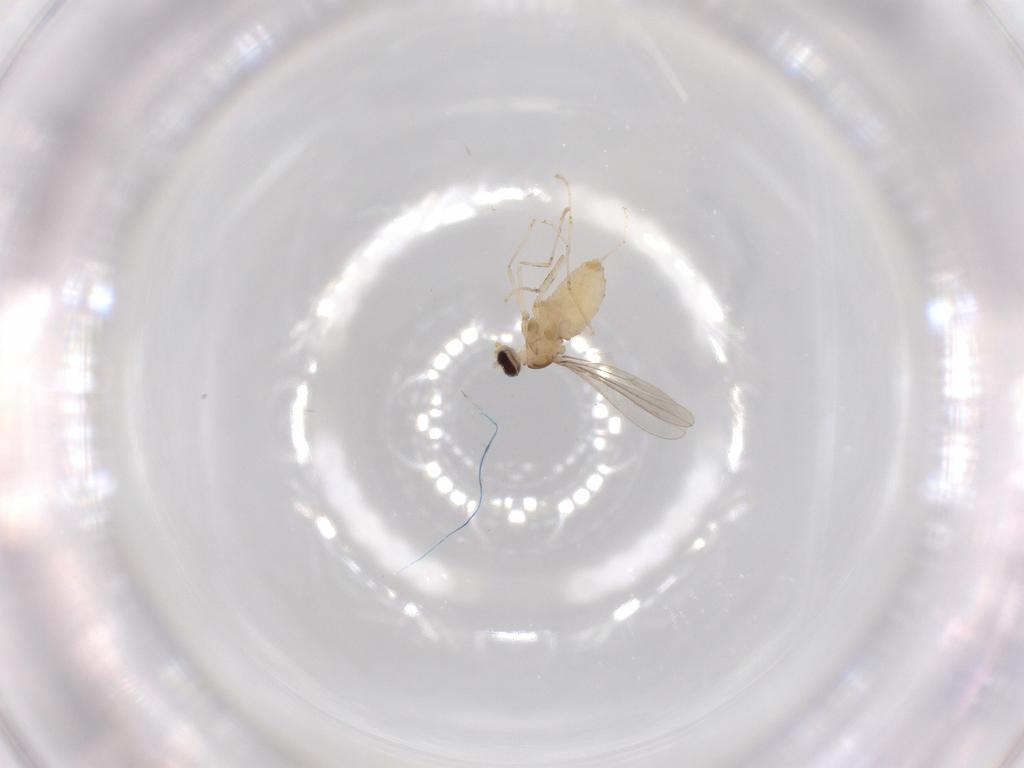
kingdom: Animalia
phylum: Arthropoda
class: Insecta
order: Diptera
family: Cecidomyiidae
